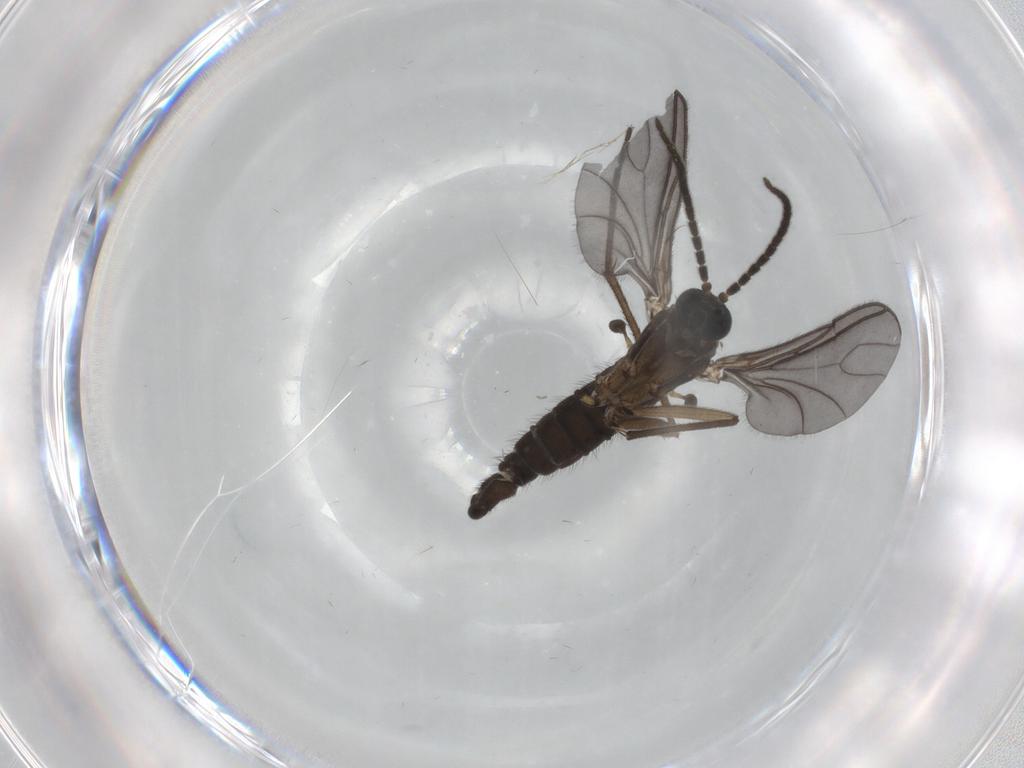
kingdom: Animalia
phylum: Arthropoda
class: Insecta
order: Diptera
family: Sciaridae
